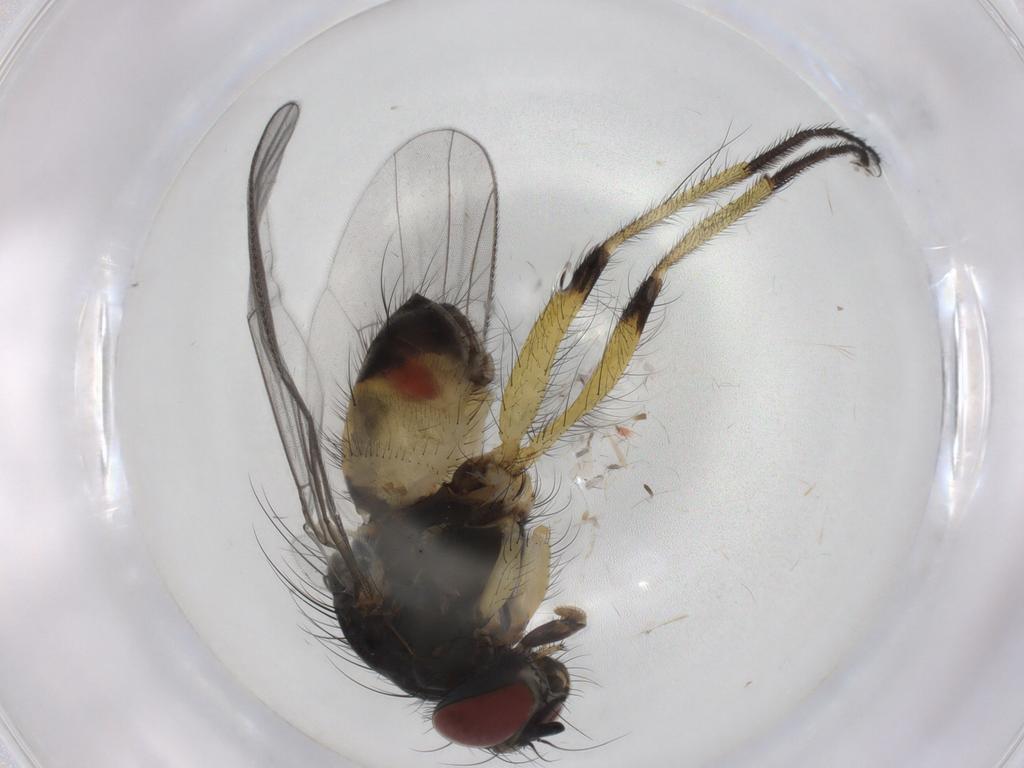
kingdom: Animalia
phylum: Arthropoda
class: Insecta
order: Diptera
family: Muscidae
